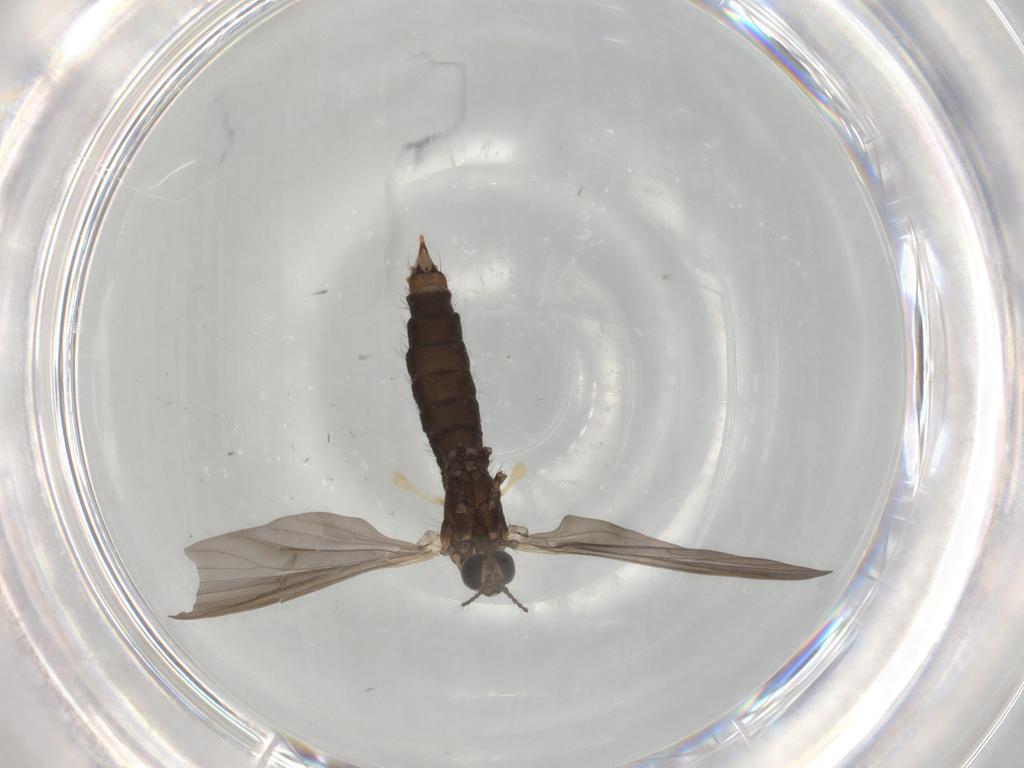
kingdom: Animalia
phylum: Arthropoda
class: Insecta
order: Diptera
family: Limoniidae
